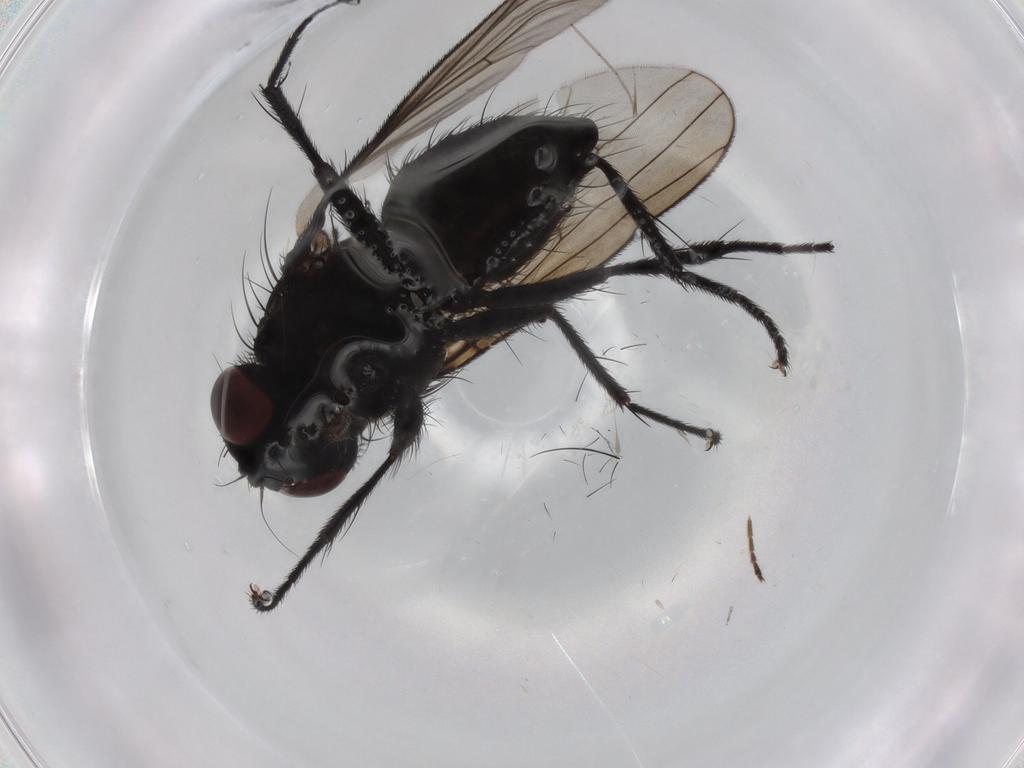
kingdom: Animalia
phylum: Arthropoda
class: Insecta
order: Diptera
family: Muscidae
